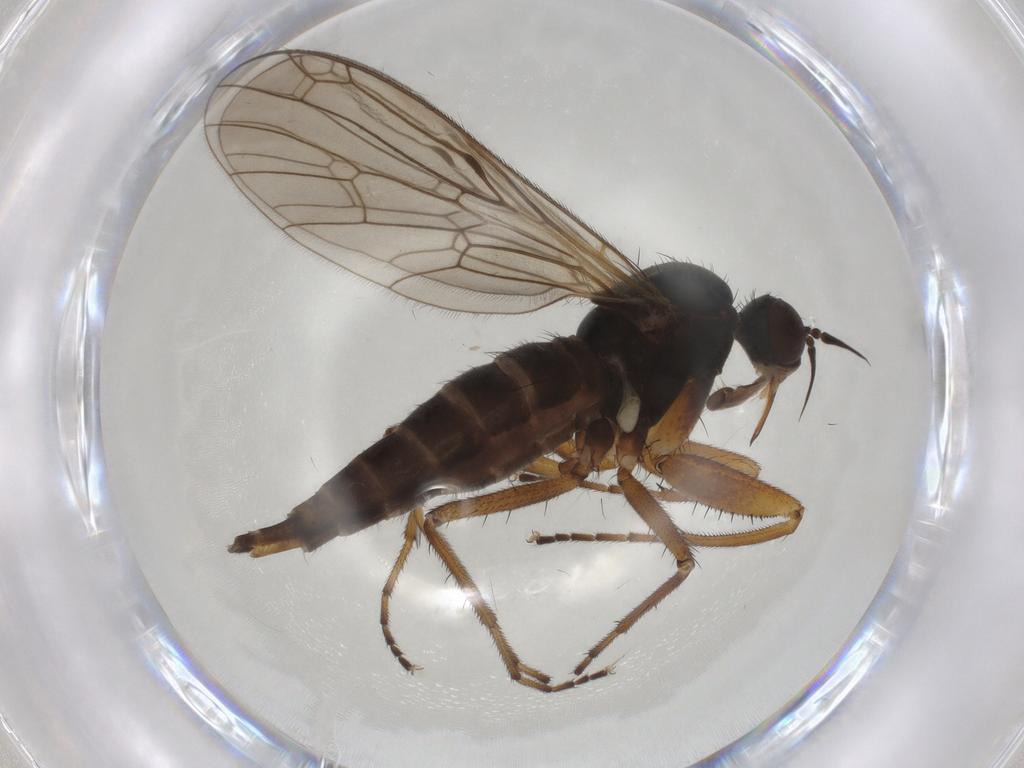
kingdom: Animalia
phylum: Arthropoda
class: Insecta
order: Diptera
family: Empididae
